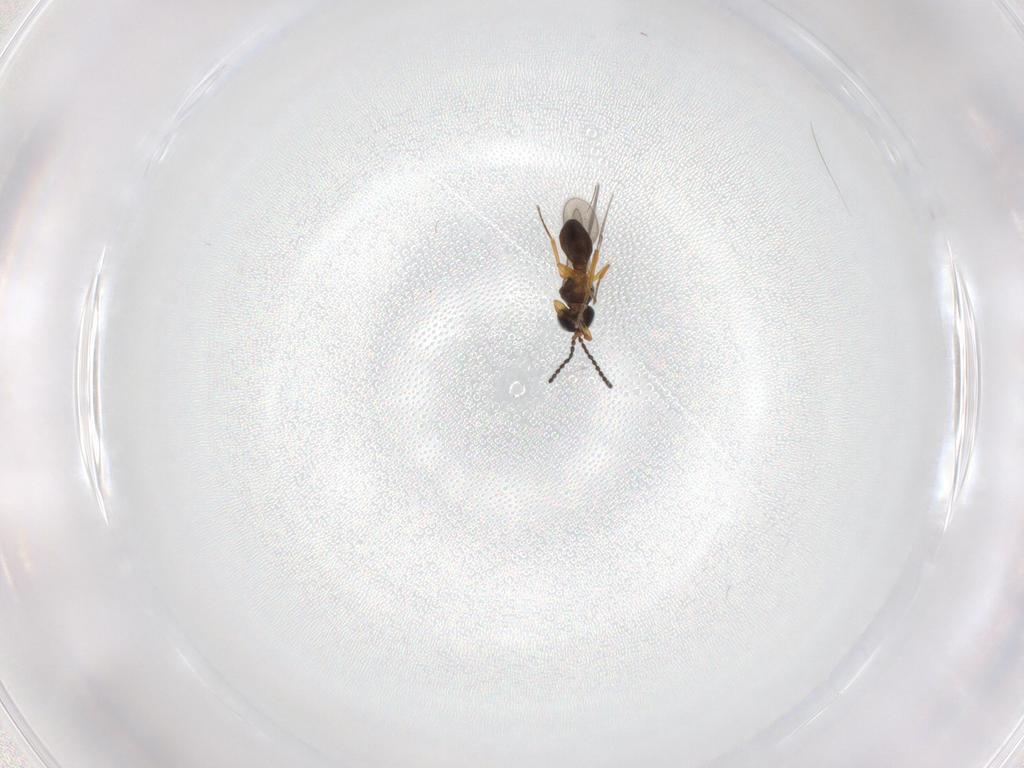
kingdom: Animalia
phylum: Arthropoda
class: Insecta
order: Hymenoptera
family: Scelionidae
